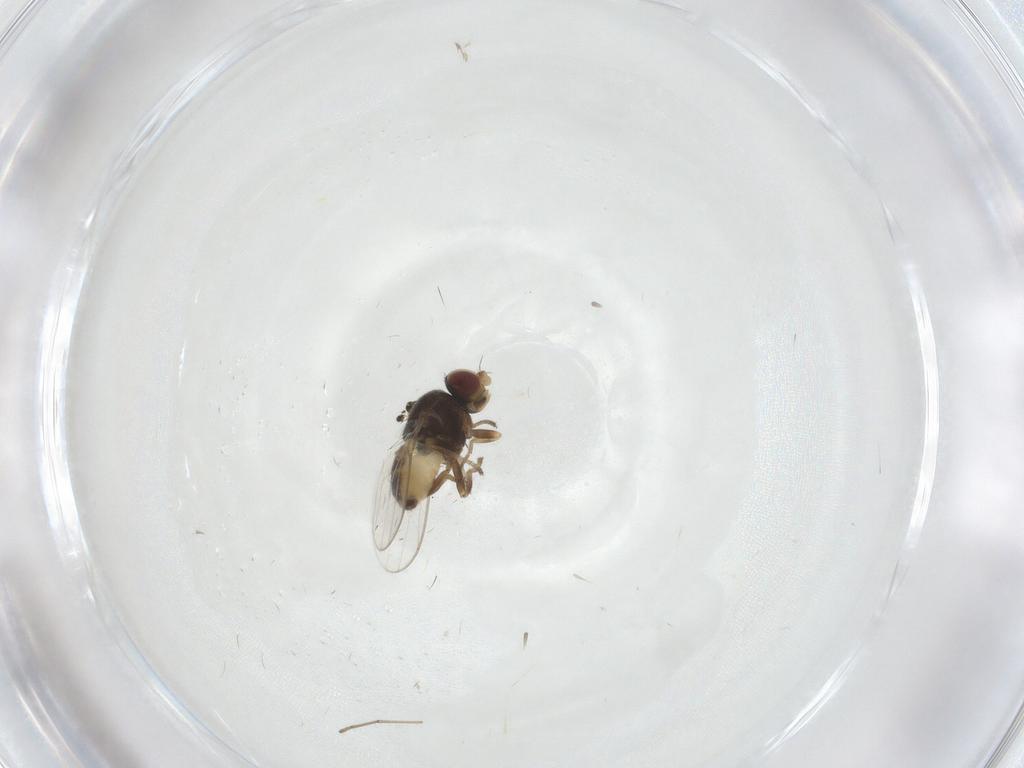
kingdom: Animalia
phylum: Arthropoda
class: Insecta
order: Diptera
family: Chloropidae
